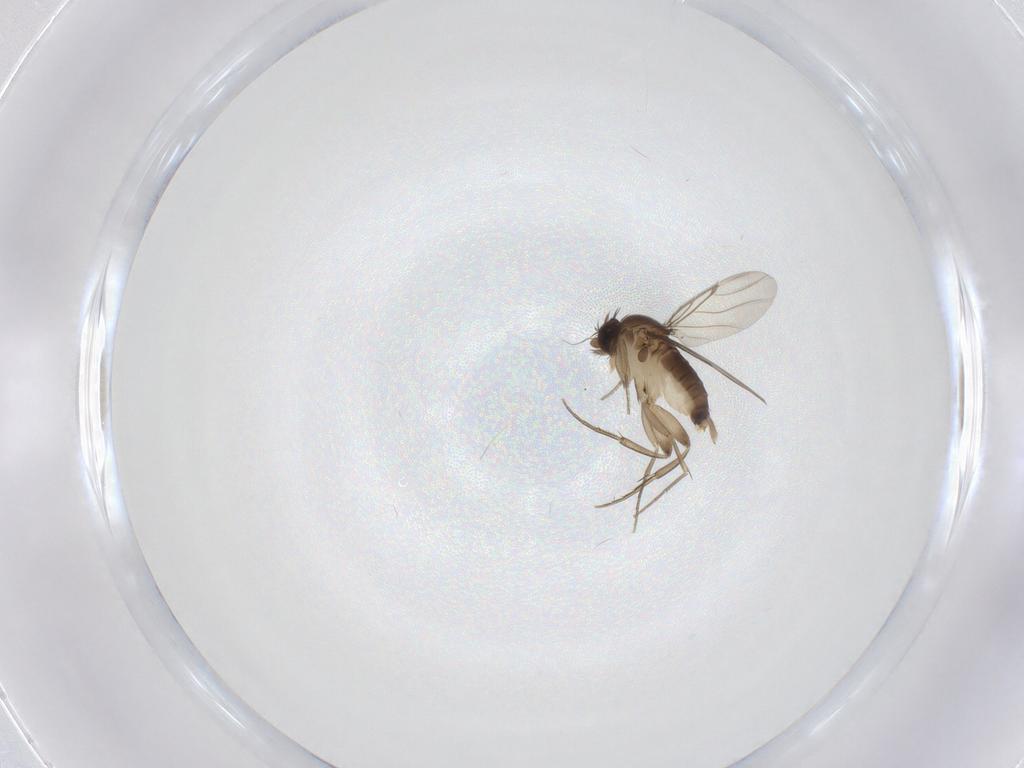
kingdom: Animalia
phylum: Arthropoda
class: Insecta
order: Diptera
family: Phoridae
